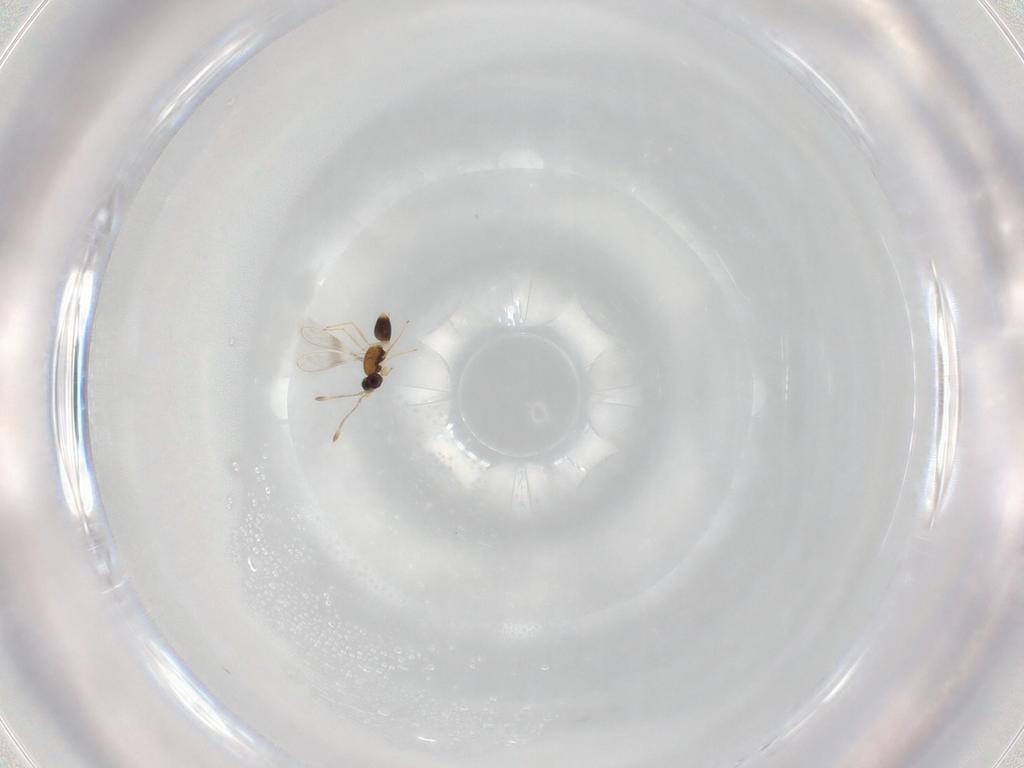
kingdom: Animalia
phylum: Arthropoda
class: Insecta
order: Hymenoptera
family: Mymaridae
